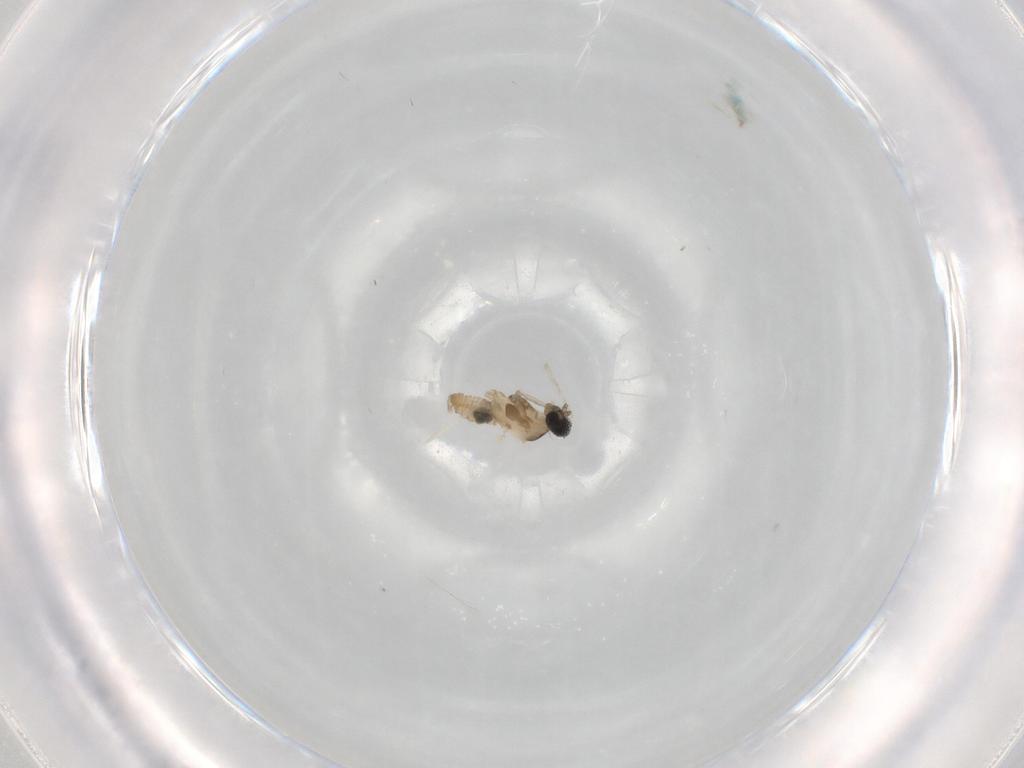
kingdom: Animalia
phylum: Arthropoda
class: Insecta
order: Diptera
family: Cecidomyiidae
